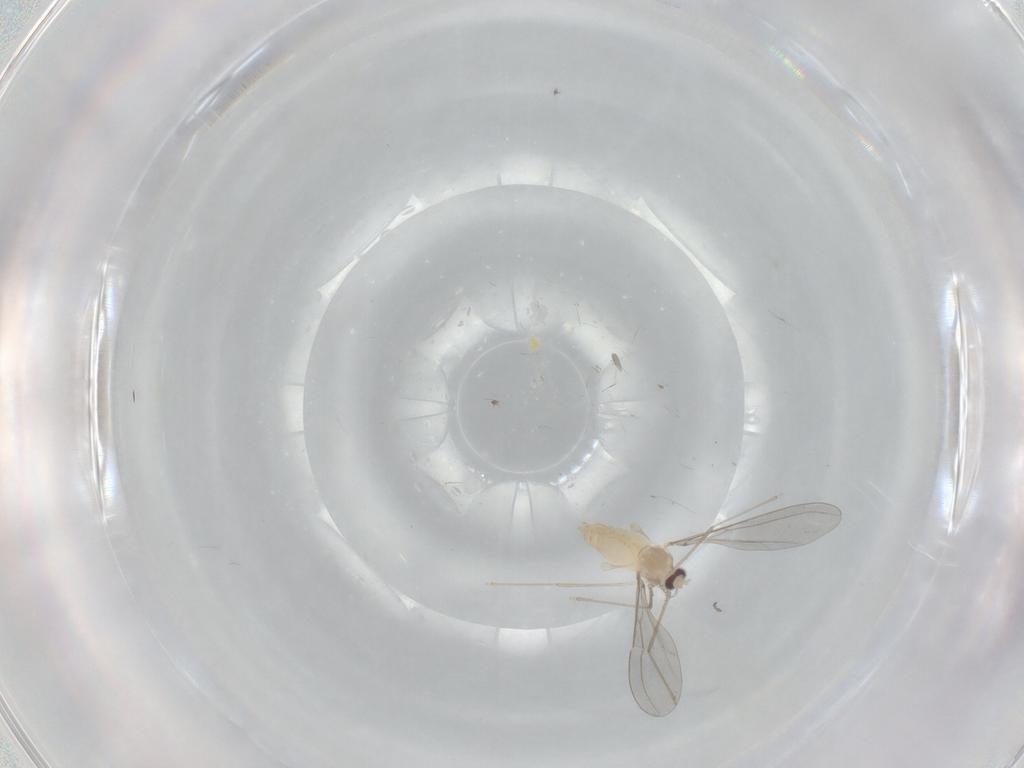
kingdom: Animalia
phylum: Arthropoda
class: Insecta
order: Diptera
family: Cecidomyiidae
